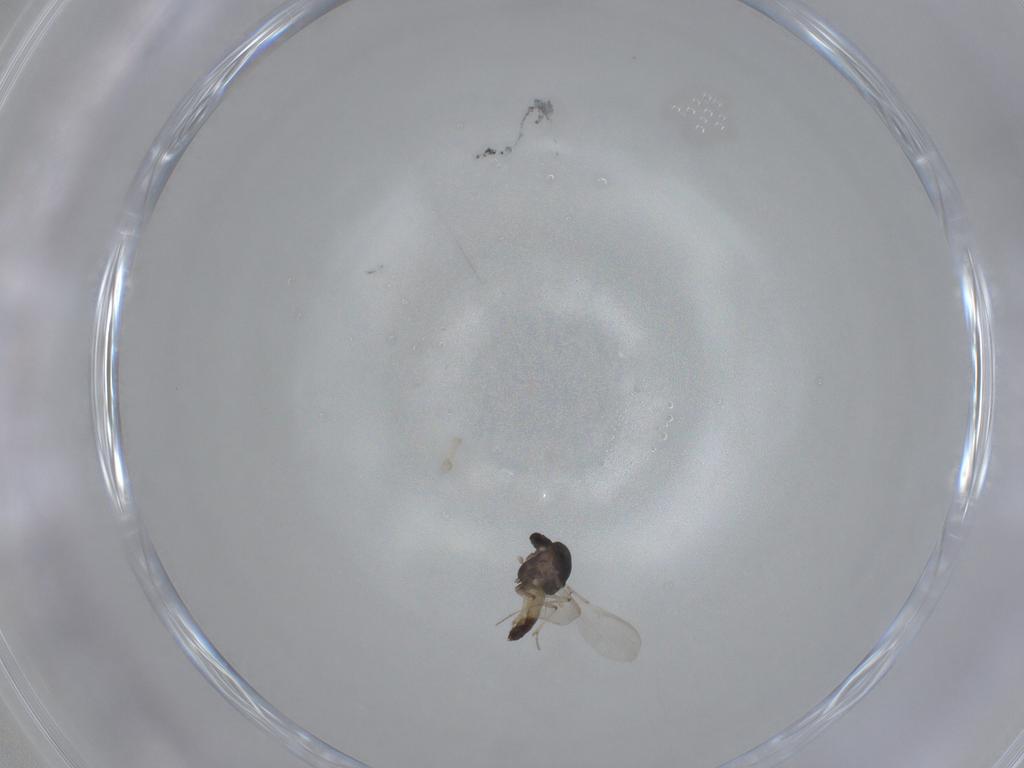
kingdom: Animalia
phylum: Arthropoda
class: Insecta
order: Diptera
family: Chironomidae
